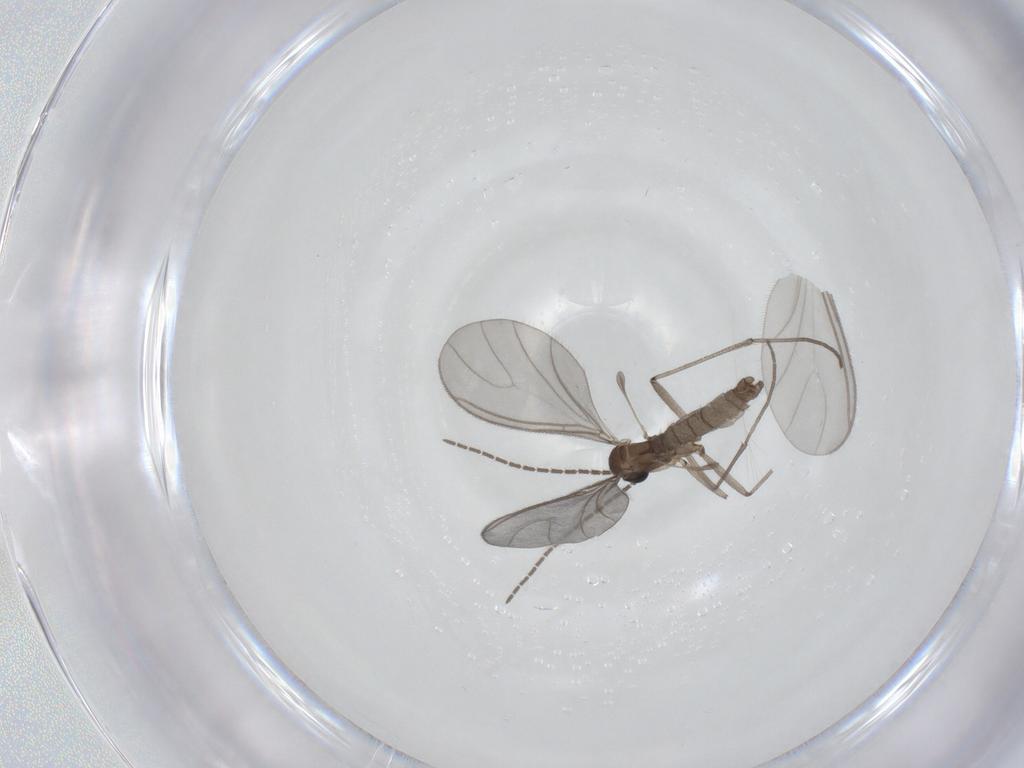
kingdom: Animalia
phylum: Arthropoda
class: Insecta
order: Diptera
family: Sciaridae
